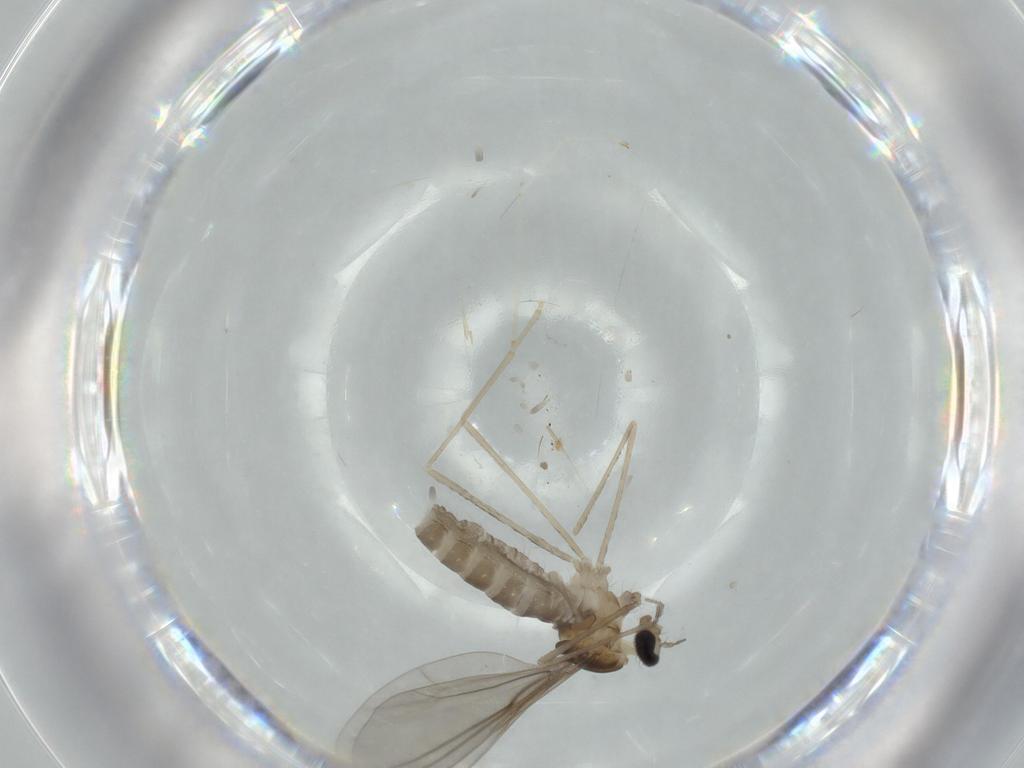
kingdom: Animalia
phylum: Arthropoda
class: Insecta
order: Diptera
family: Cecidomyiidae
